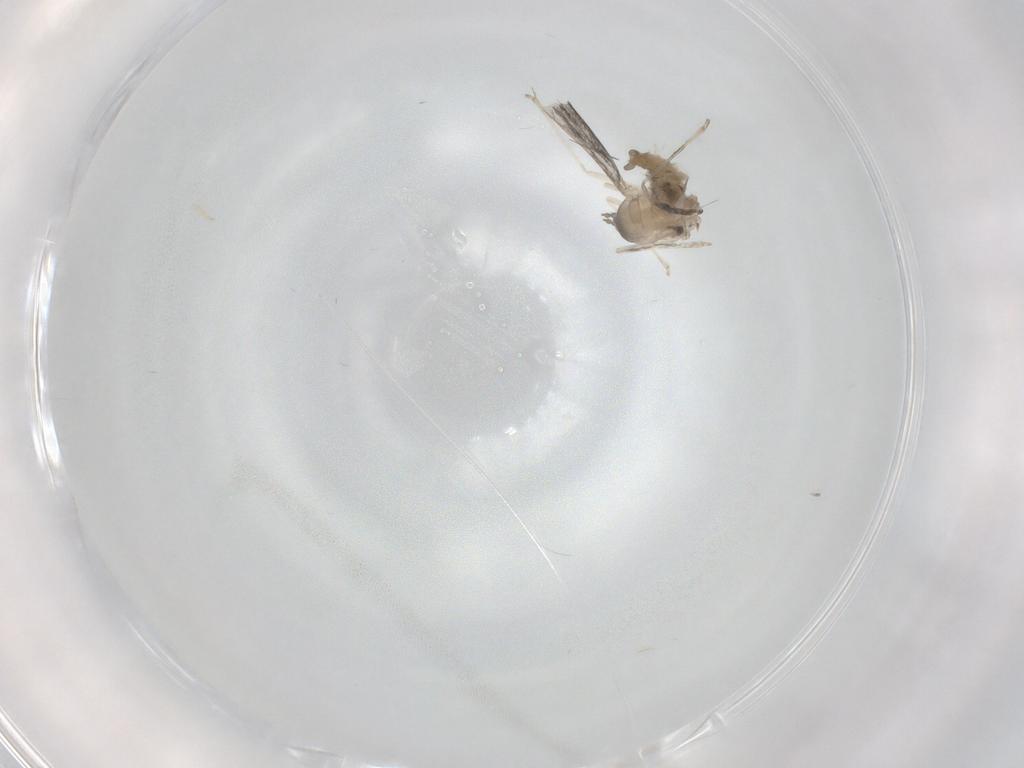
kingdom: Animalia
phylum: Arthropoda
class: Insecta
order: Diptera
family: Cecidomyiidae
